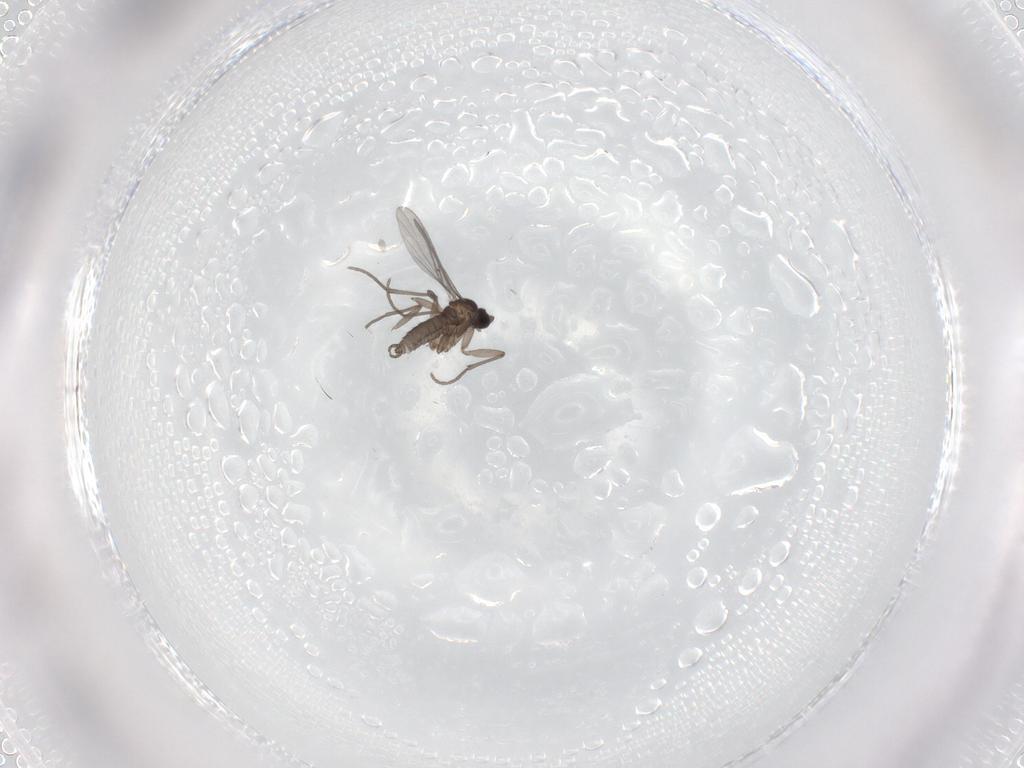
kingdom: Animalia
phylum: Arthropoda
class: Insecta
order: Diptera
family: Sciaridae
